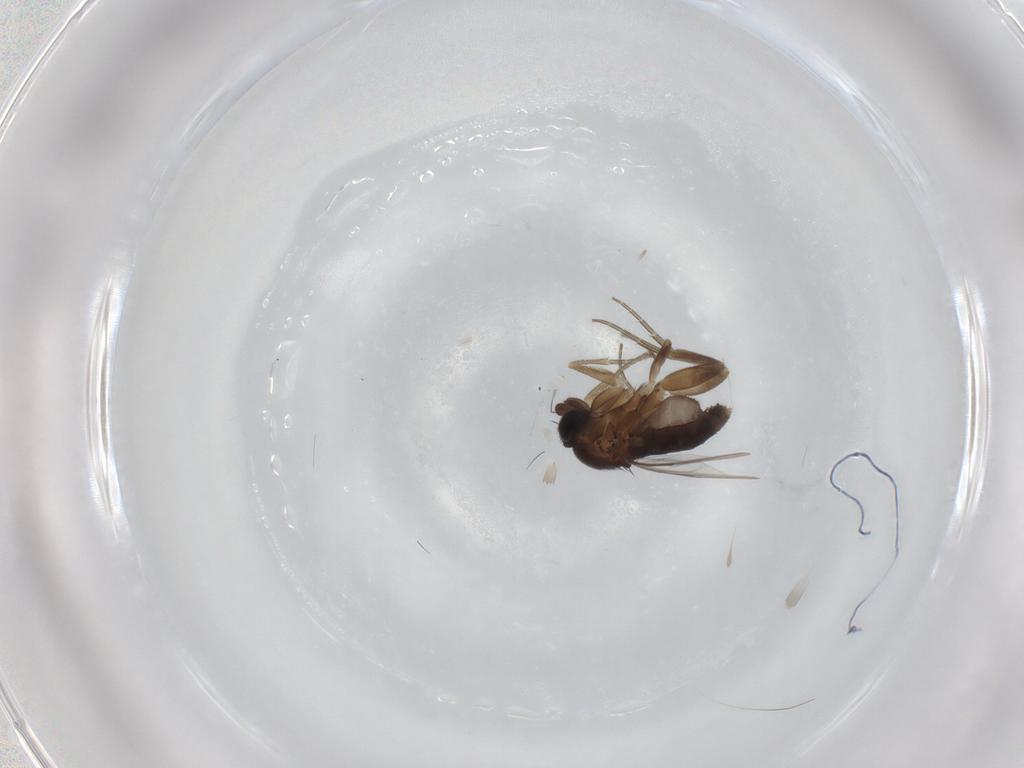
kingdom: Animalia
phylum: Arthropoda
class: Insecta
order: Diptera
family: Phoridae
